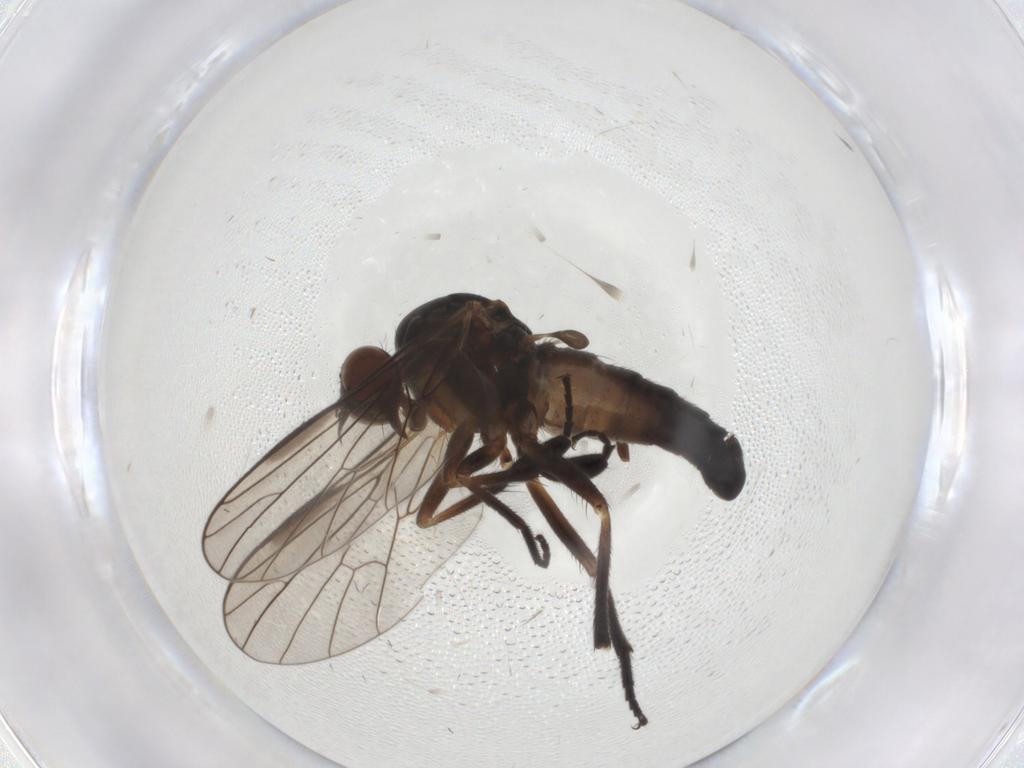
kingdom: Animalia
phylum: Arthropoda
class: Insecta
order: Diptera
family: Empididae
